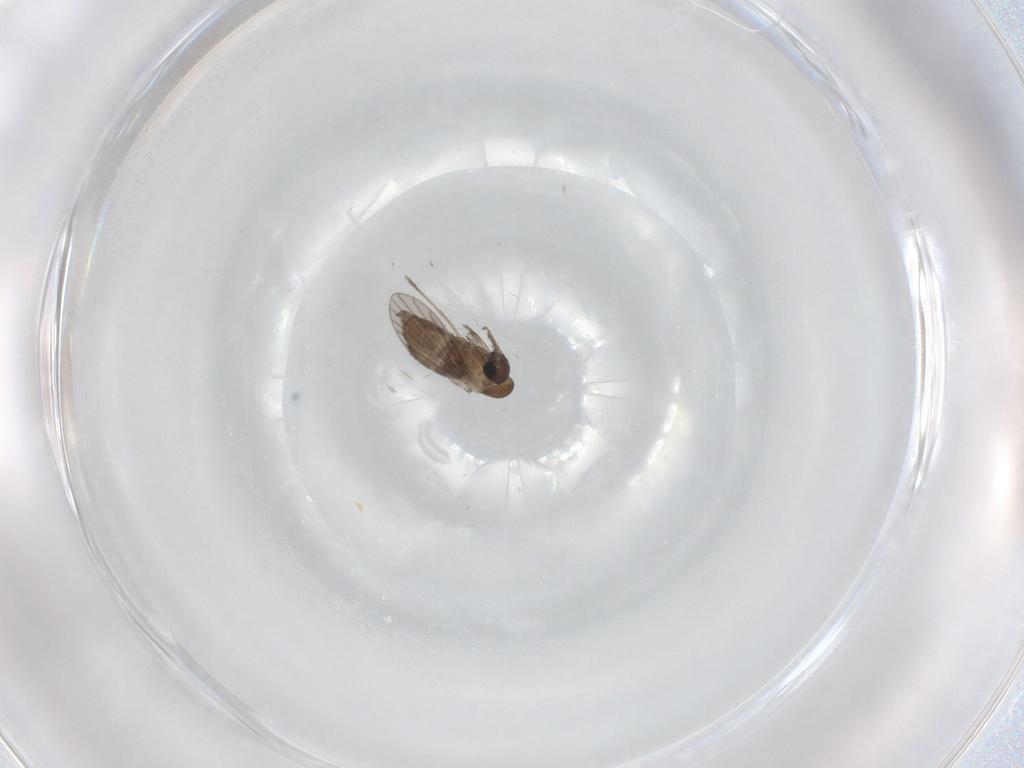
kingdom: Animalia
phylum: Arthropoda
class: Insecta
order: Diptera
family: Cecidomyiidae
